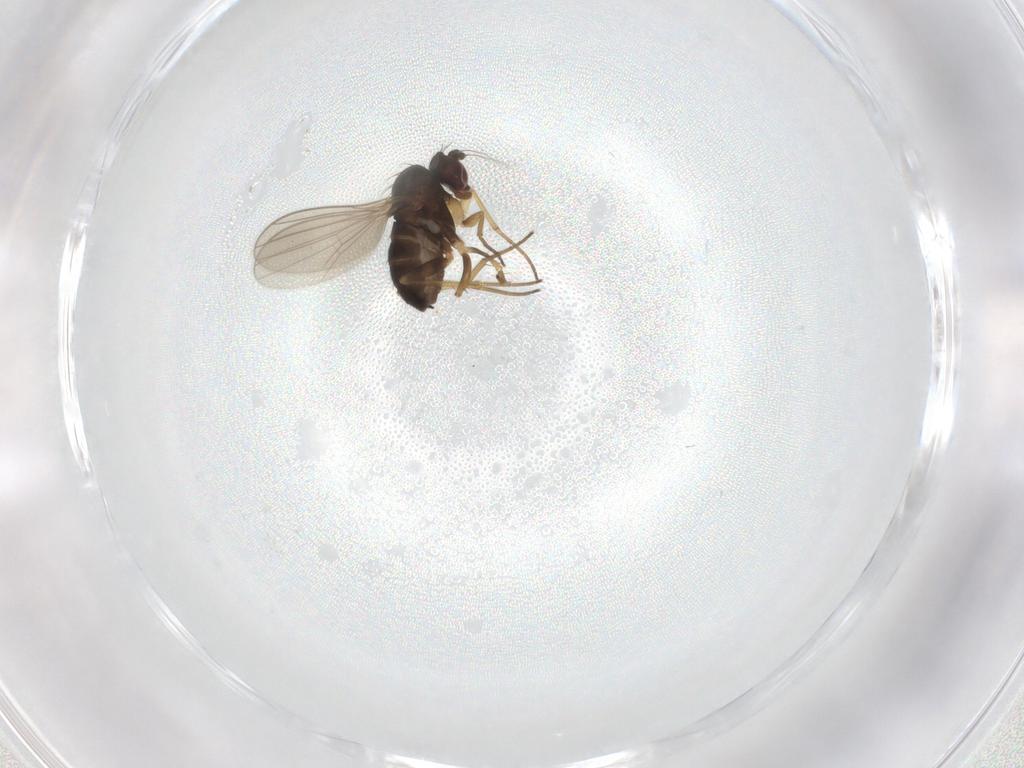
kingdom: Animalia
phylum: Arthropoda
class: Insecta
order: Diptera
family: Dolichopodidae
